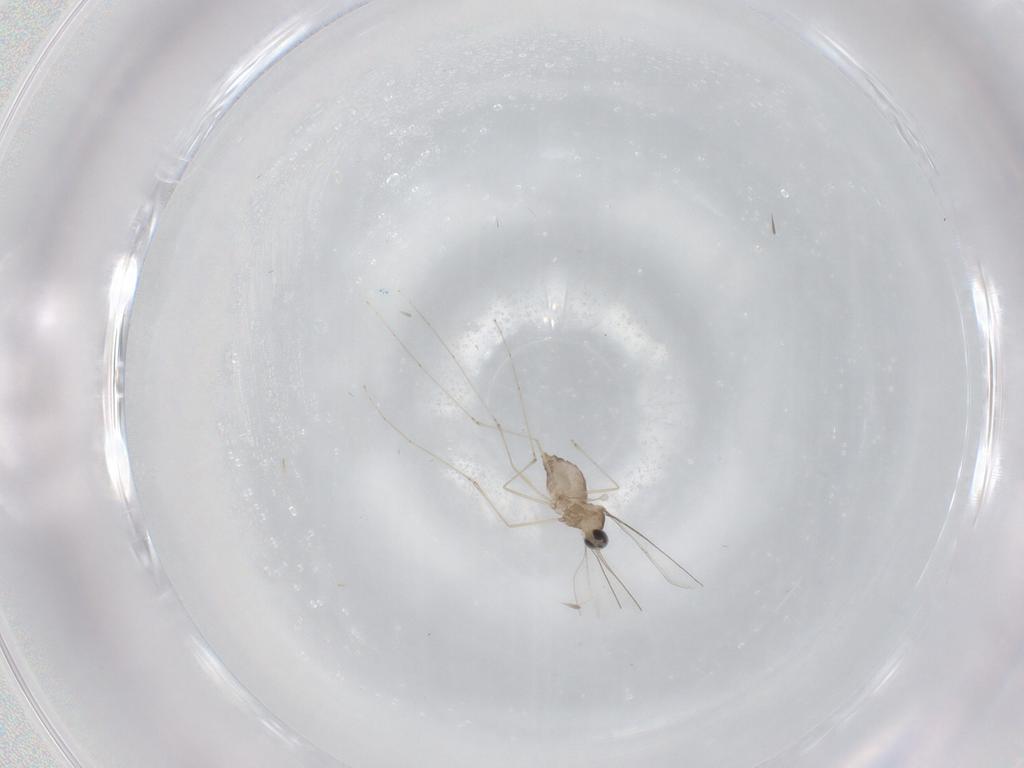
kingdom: Animalia
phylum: Arthropoda
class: Insecta
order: Diptera
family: Cecidomyiidae
